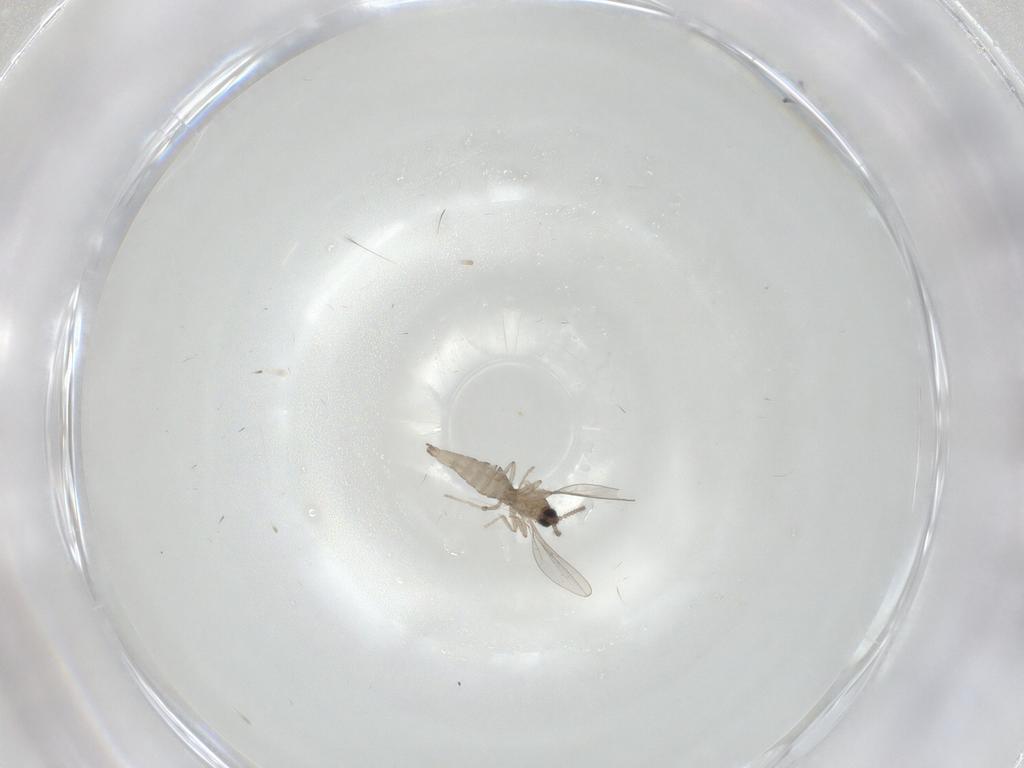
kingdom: Animalia
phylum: Arthropoda
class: Insecta
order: Diptera
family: Cecidomyiidae
